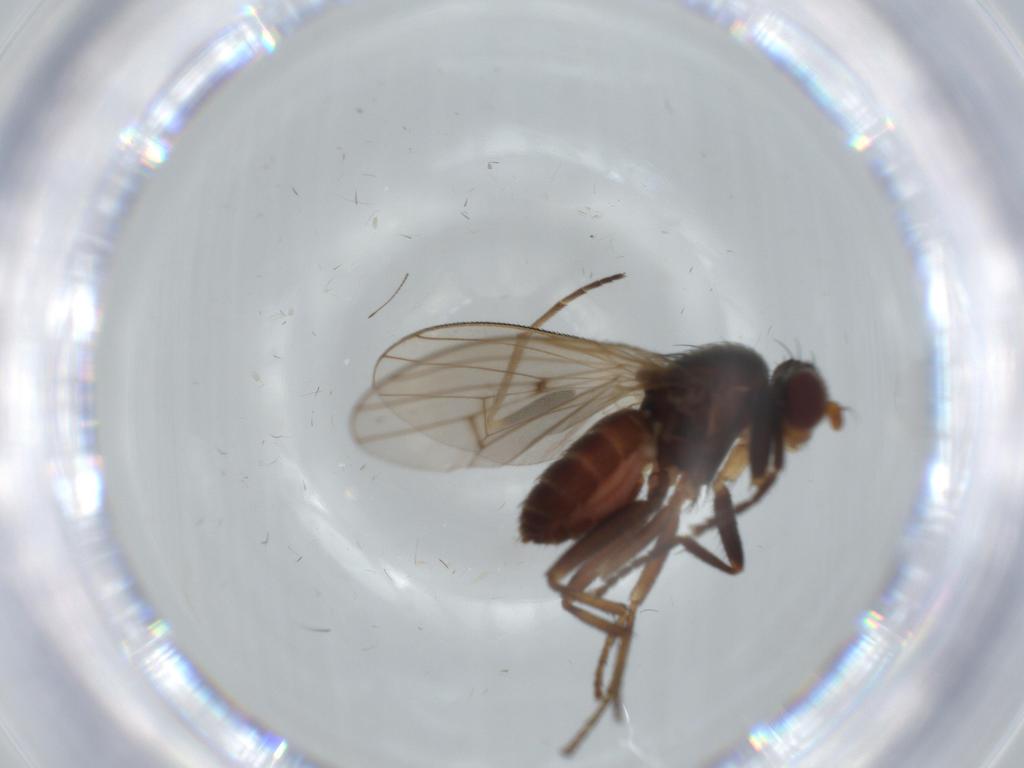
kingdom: Animalia
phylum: Arthropoda
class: Insecta
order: Diptera
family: Sciomyzidae
